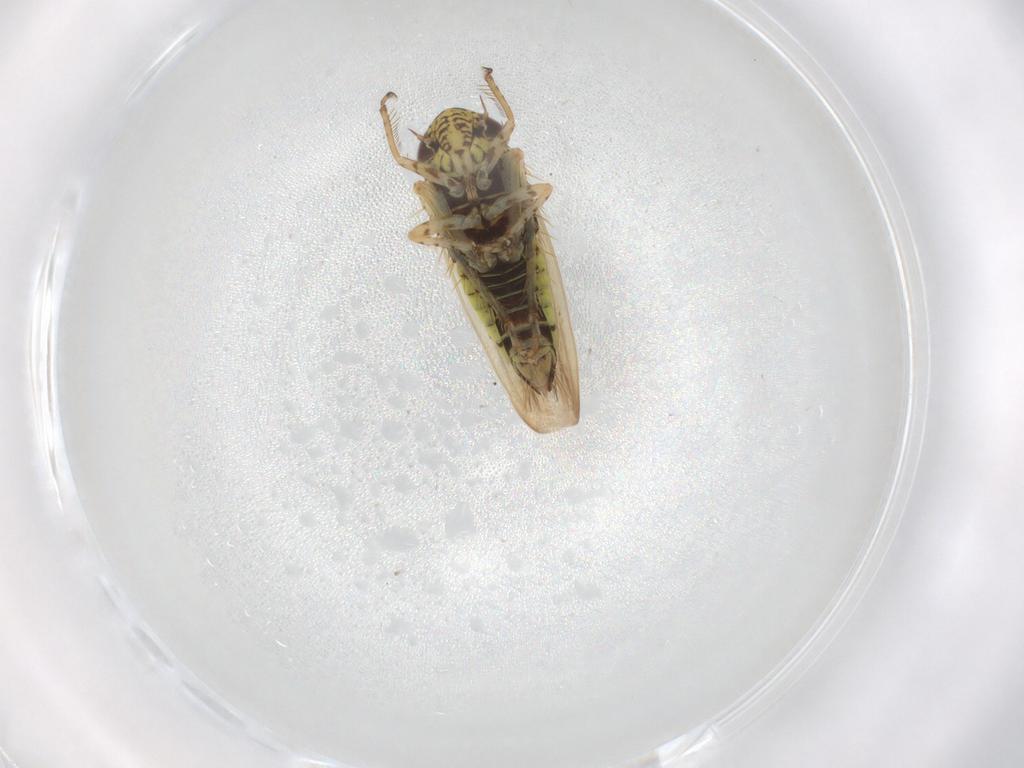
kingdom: Animalia
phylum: Arthropoda
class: Insecta
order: Hemiptera
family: Cicadellidae
